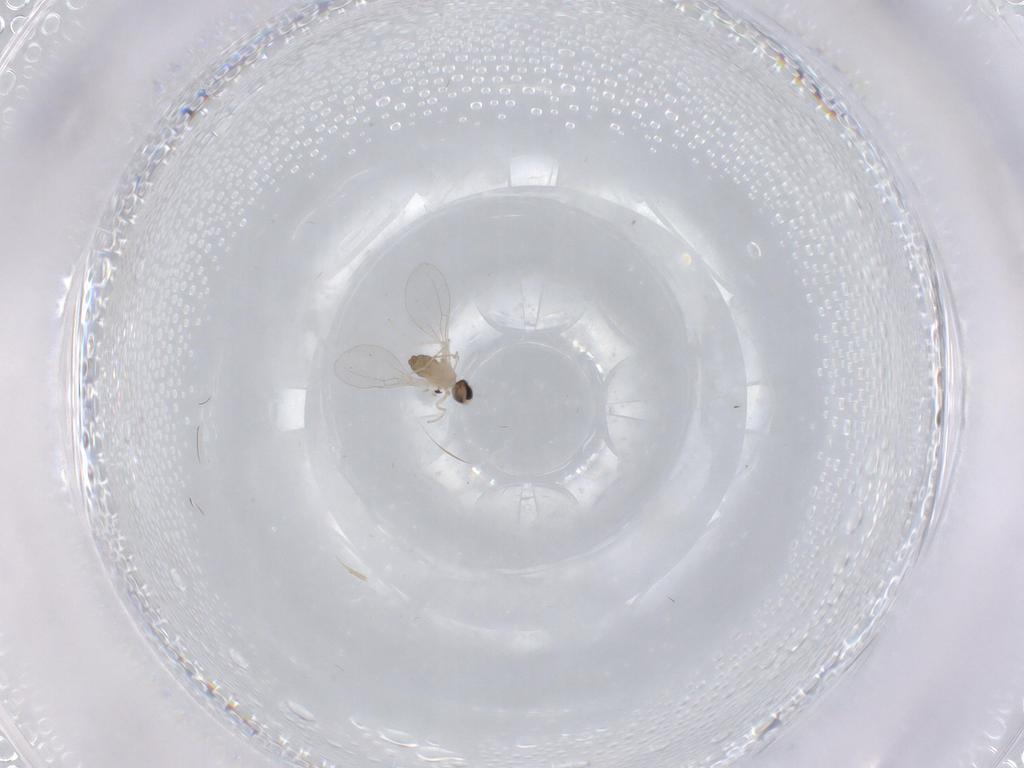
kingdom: Animalia
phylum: Arthropoda
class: Insecta
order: Diptera
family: Cecidomyiidae
